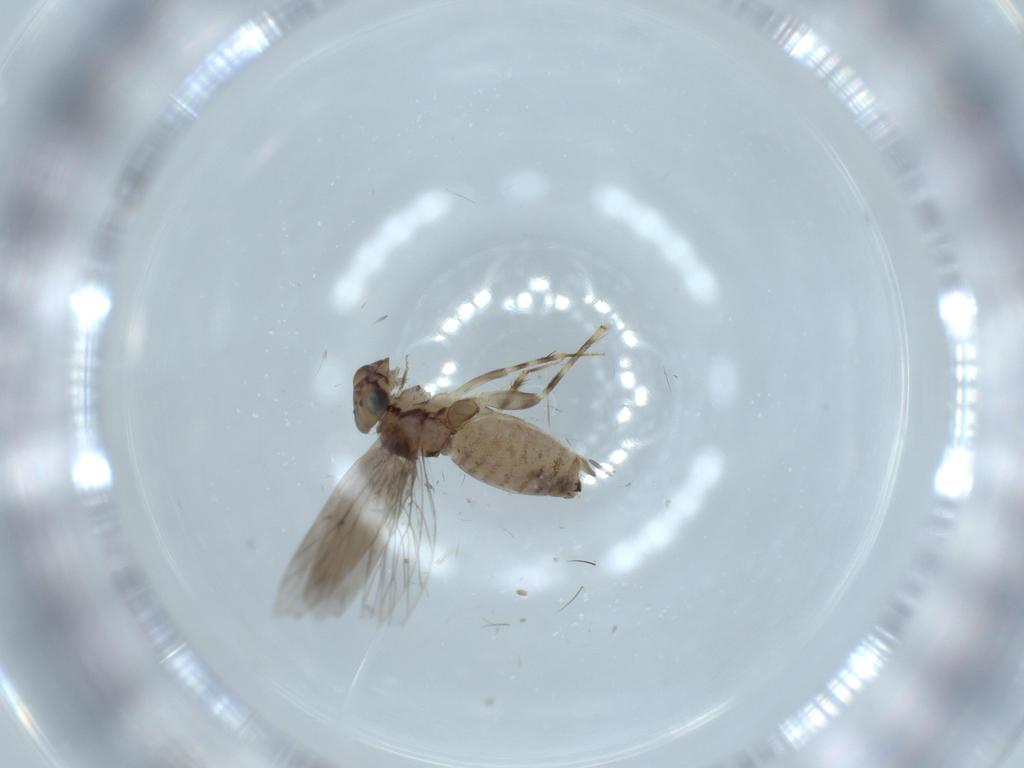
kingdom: Animalia
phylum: Arthropoda
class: Insecta
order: Psocodea
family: Lepidopsocidae
